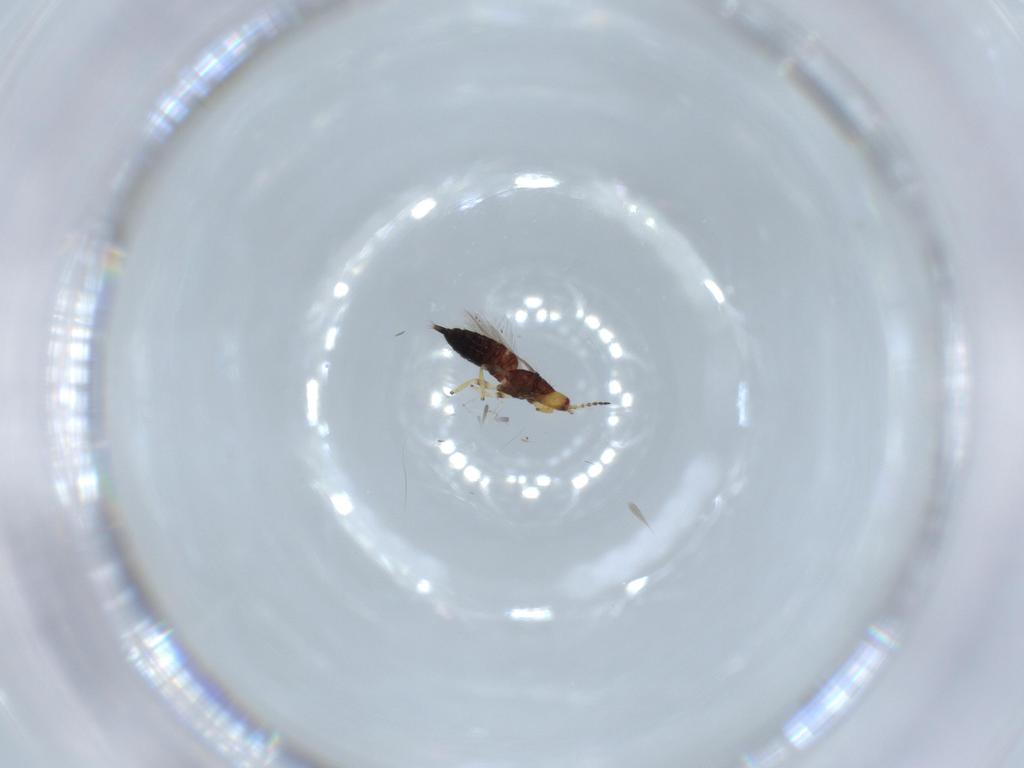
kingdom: Animalia
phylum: Arthropoda
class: Insecta
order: Thysanoptera
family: Phlaeothripidae
